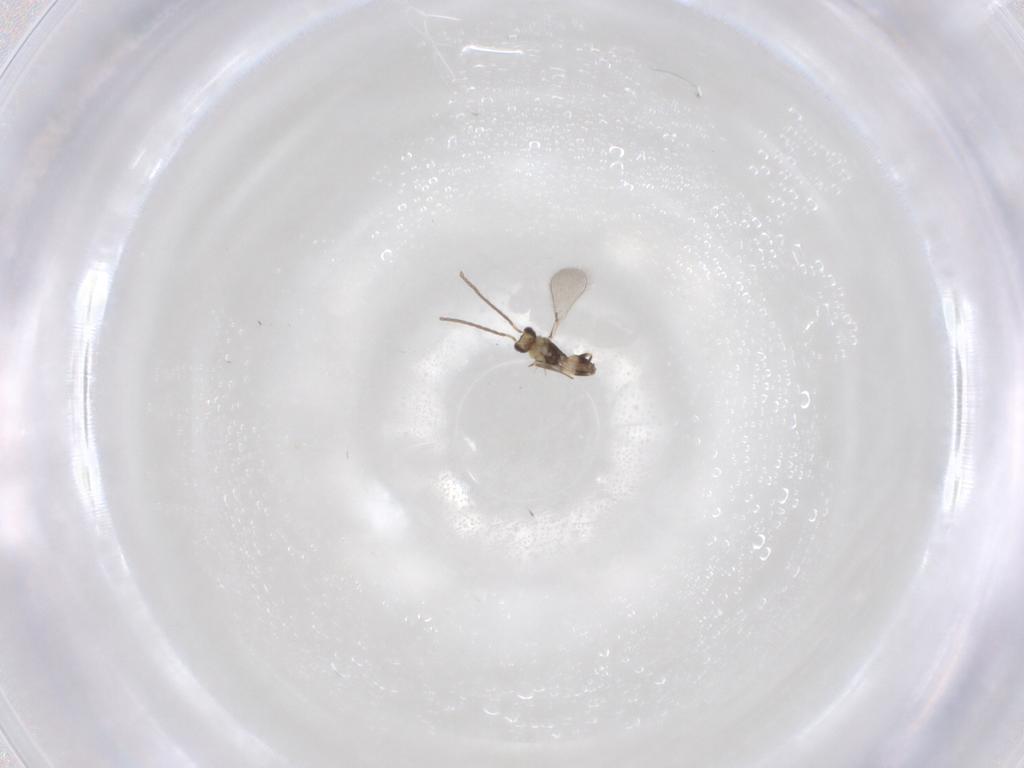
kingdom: Animalia
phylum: Arthropoda
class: Insecta
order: Hymenoptera
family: Mymaridae
